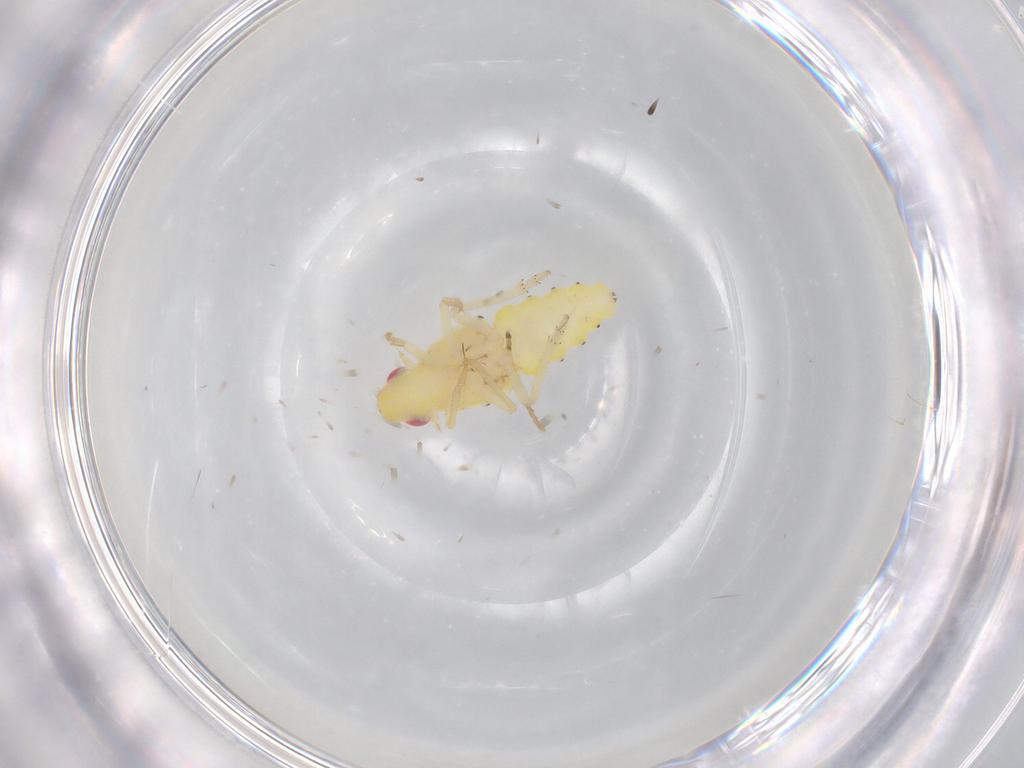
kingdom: Animalia
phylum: Arthropoda
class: Insecta
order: Hemiptera
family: Tropiduchidae
